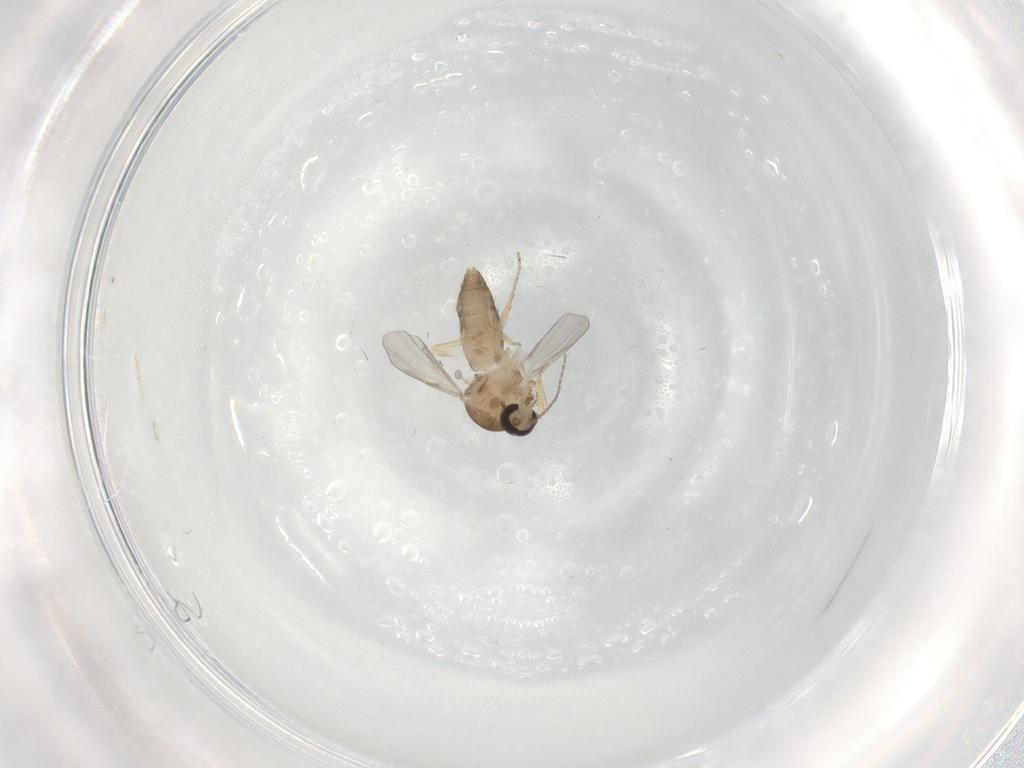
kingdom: Animalia
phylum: Arthropoda
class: Insecta
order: Diptera
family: Ceratopogonidae
